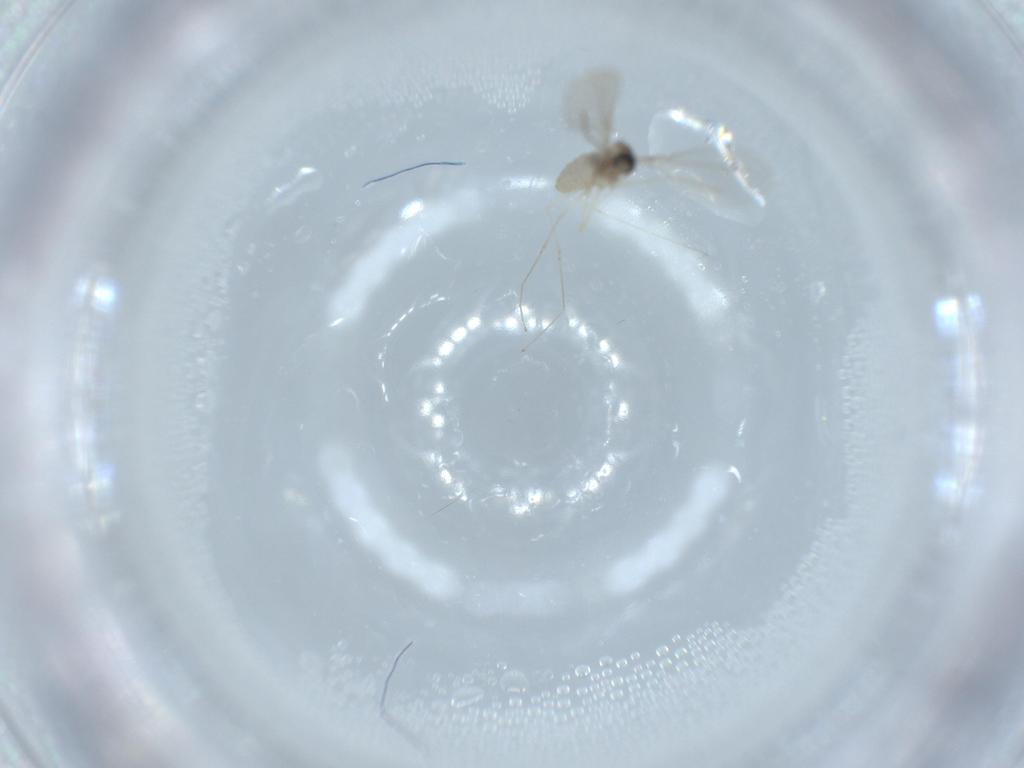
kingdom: Animalia
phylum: Arthropoda
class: Insecta
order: Diptera
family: Cecidomyiidae
